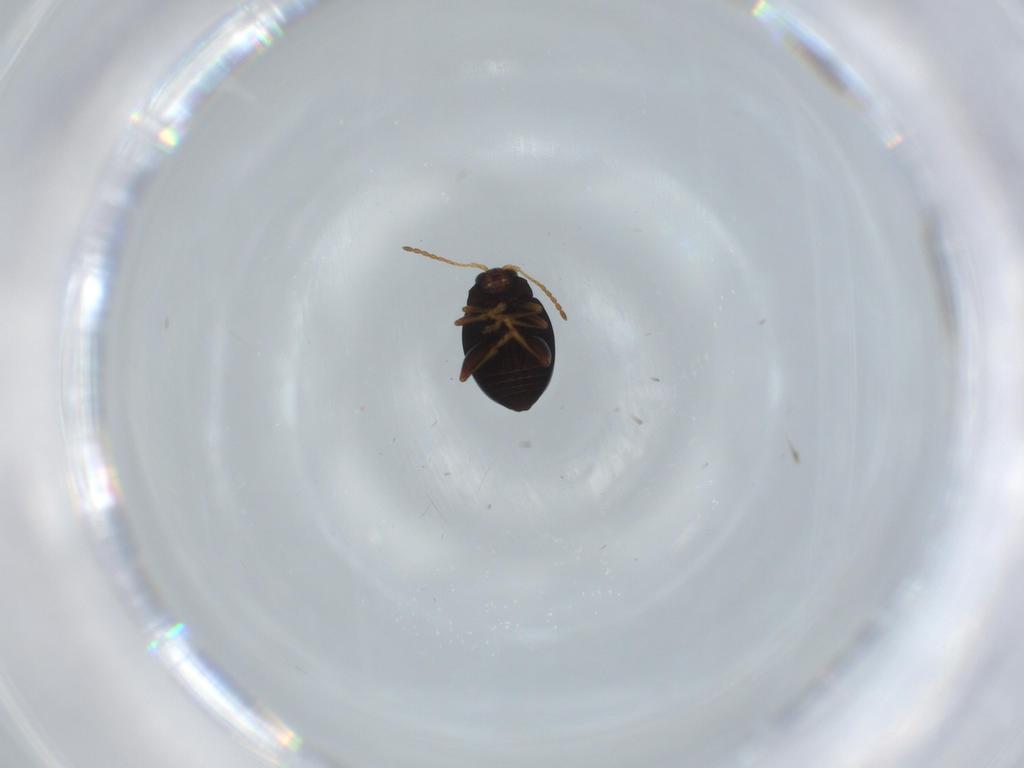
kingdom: Animalia
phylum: Arthropoda
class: Insecta
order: Coleoptera
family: Chrysomelidae
